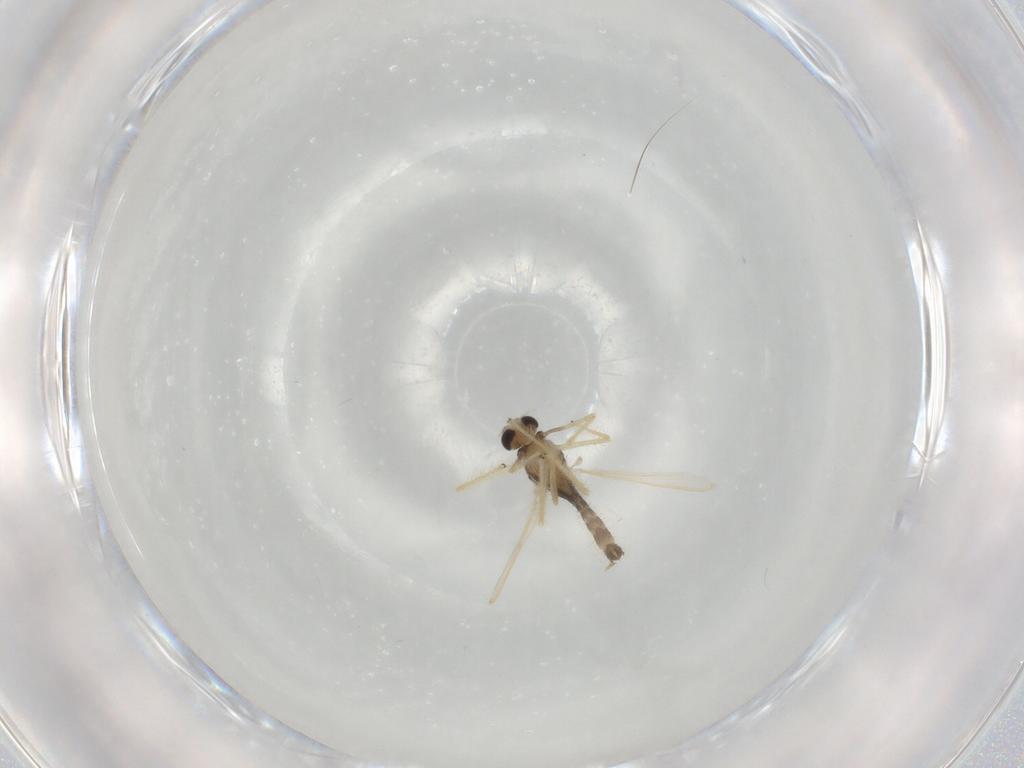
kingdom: Animalia
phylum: Arthropoda
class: Insecta
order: Diptera
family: Chironomidae
